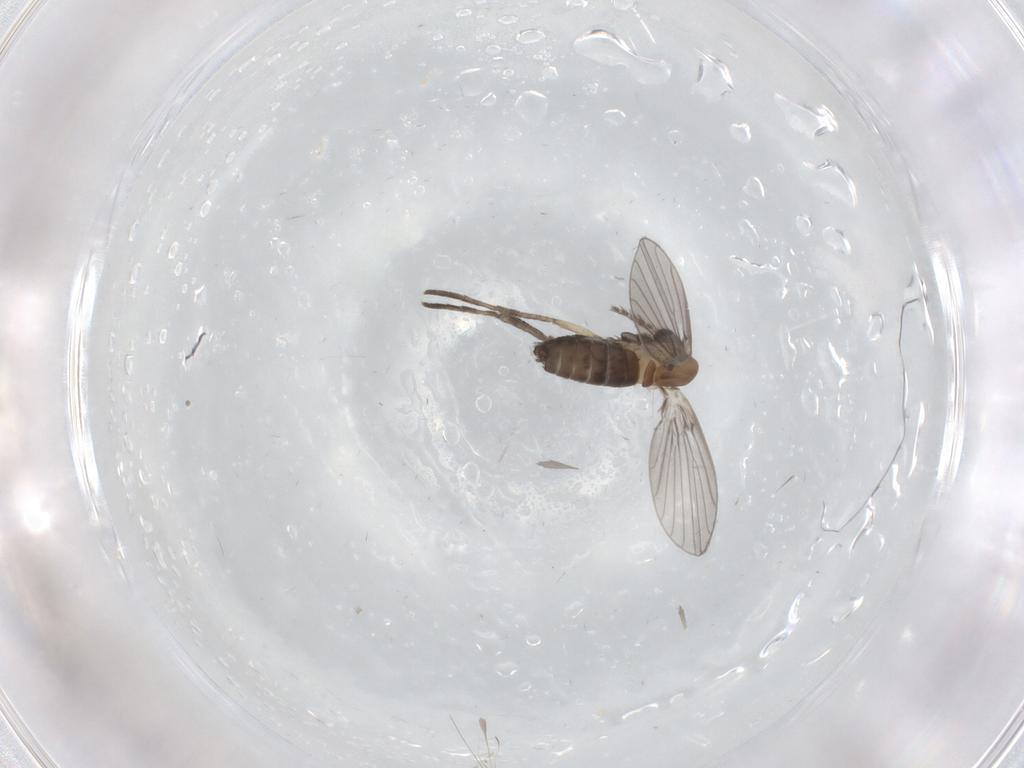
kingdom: Animalia
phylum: Arthropoda
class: Insecta
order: Diptera
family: Psychodidae
